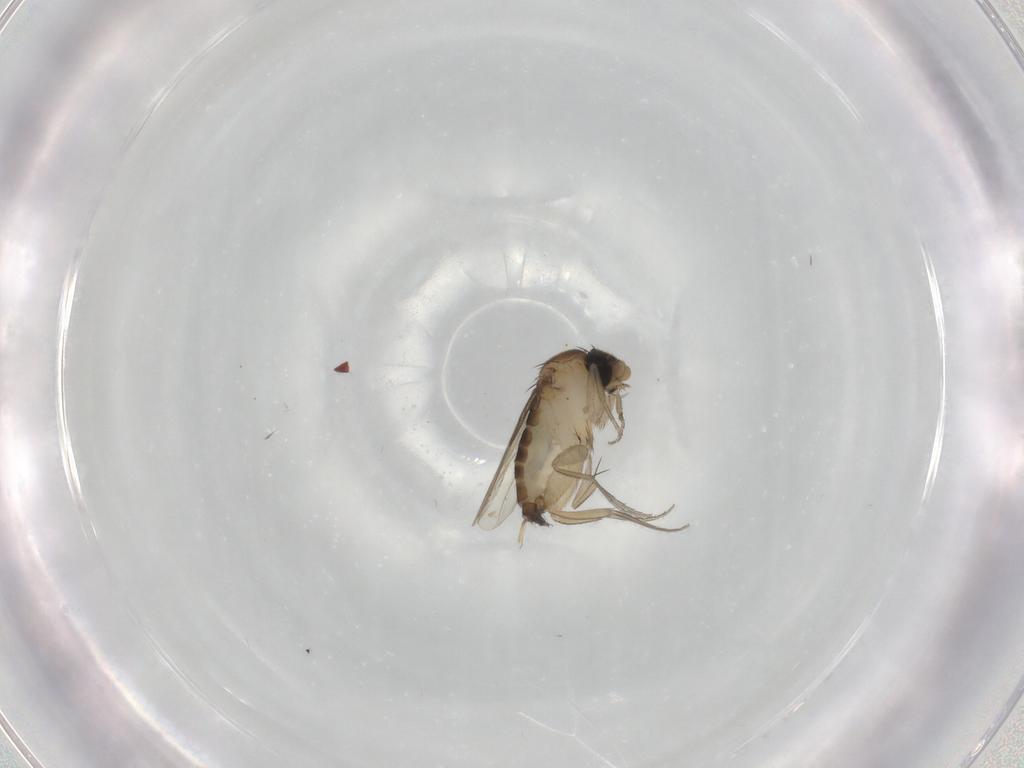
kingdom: Animalia
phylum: Arthropoda
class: Insecta
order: Diptera
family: Phoridae
